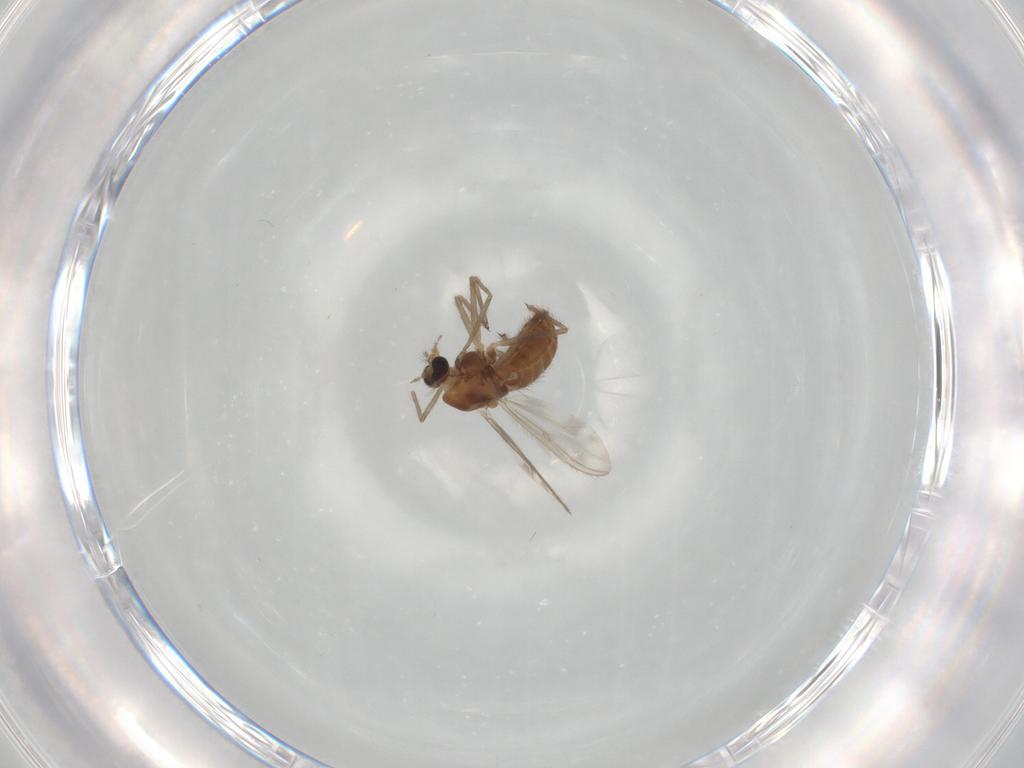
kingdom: Animalia
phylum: Arthropoda
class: Insecta
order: Diptera
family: Chironomidae
